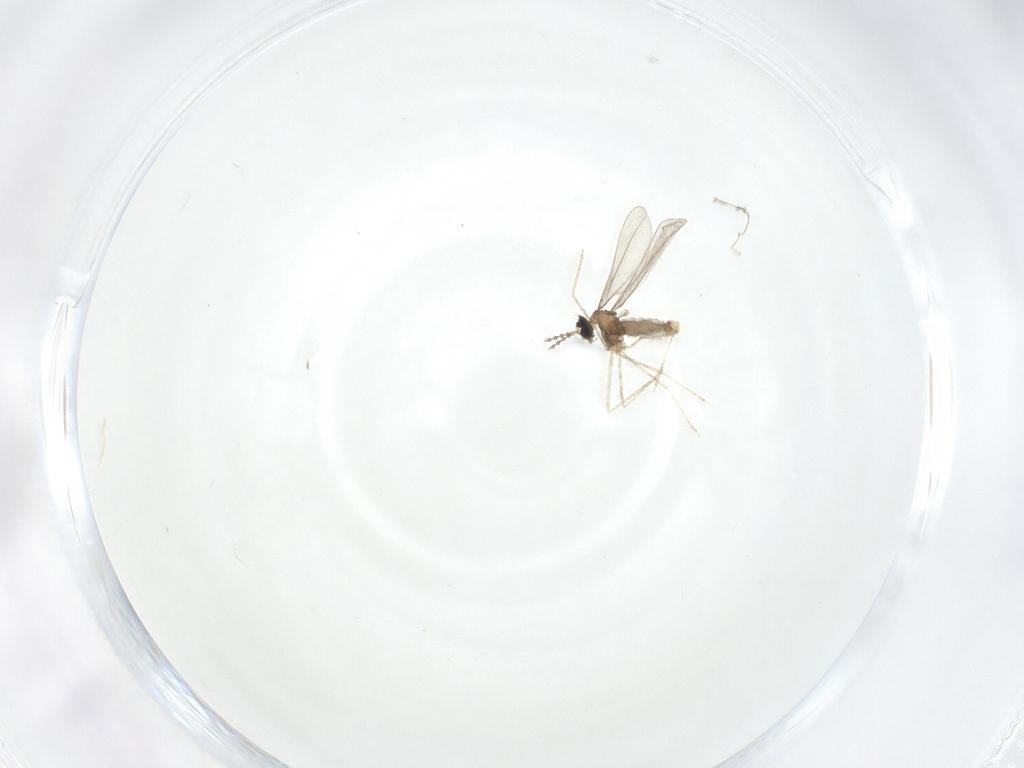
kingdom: Animalia
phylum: Arthropoda
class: Insecta
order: Diptera
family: Cecidomyiidae
